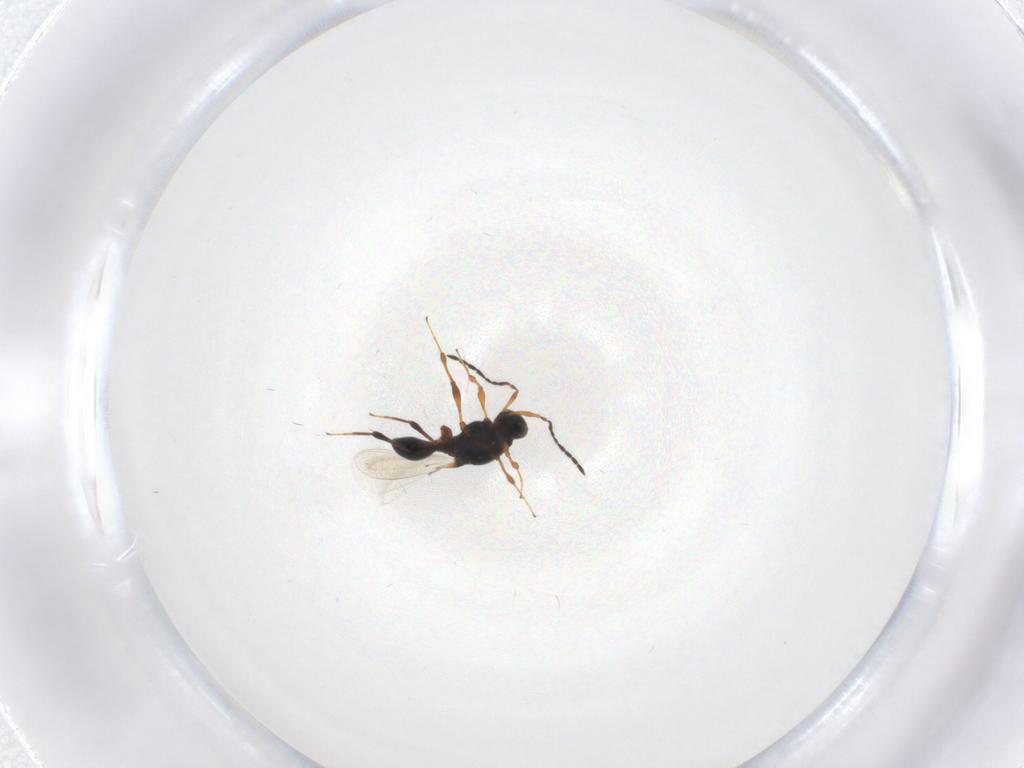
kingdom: Animalia
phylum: Arthropoda
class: Insecta
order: Hymenoptera
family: Platygastridae
